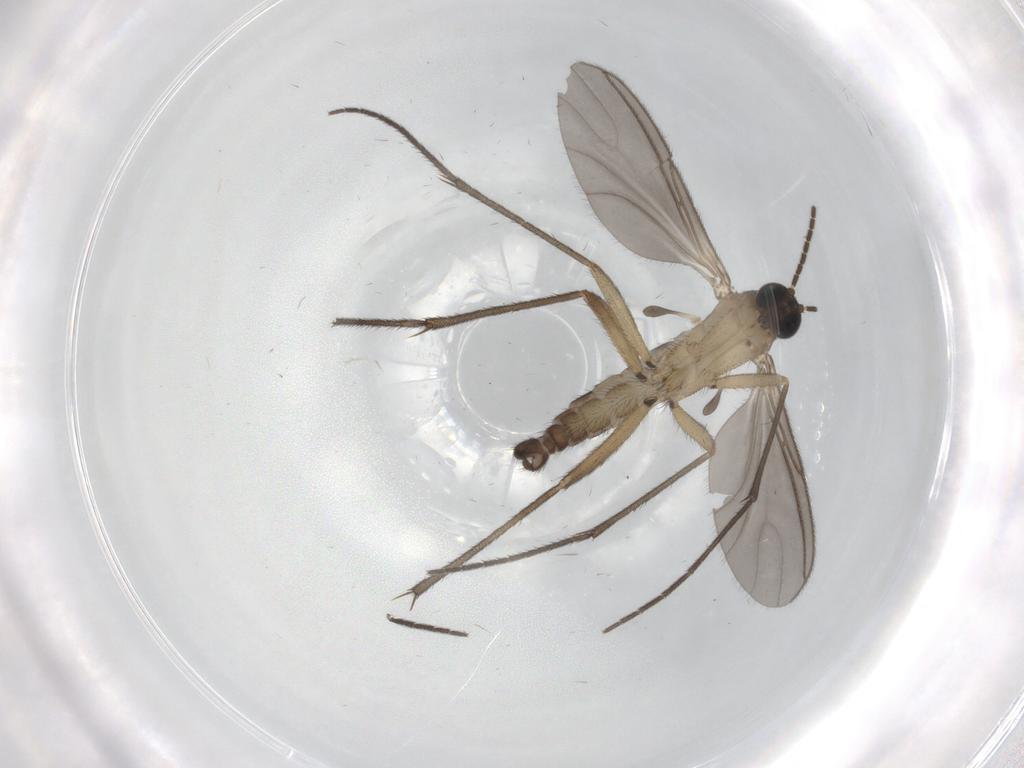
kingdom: Animalia
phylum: Arthropoda
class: Insecta
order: Diptera
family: Sciaridae
